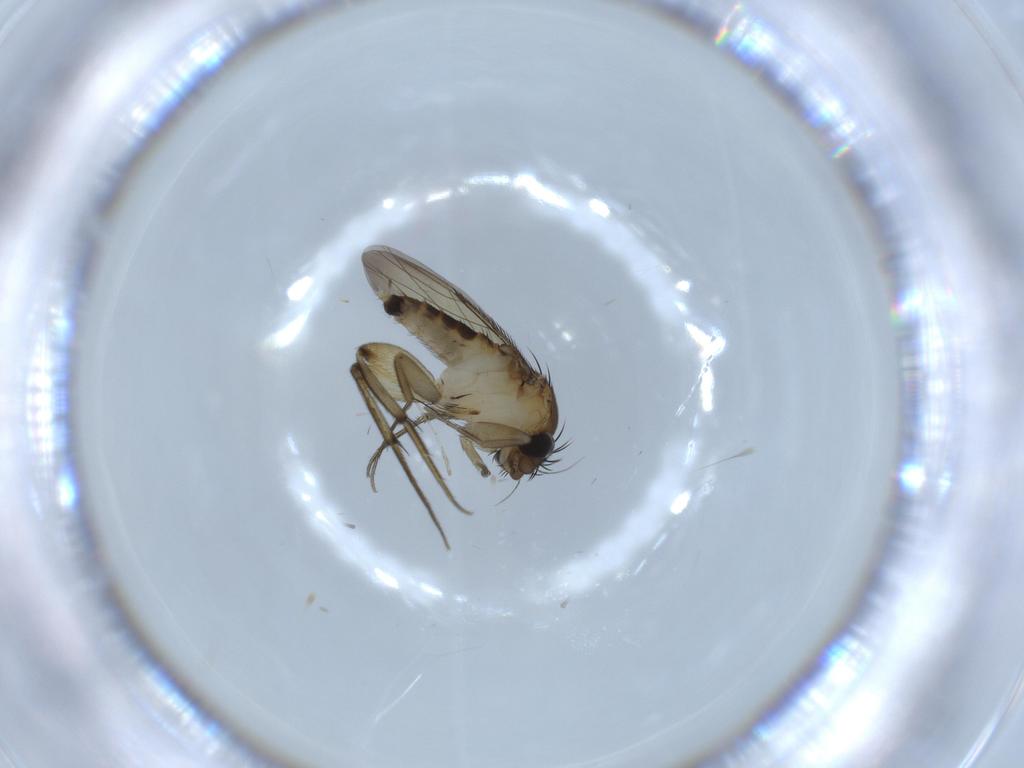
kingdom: Animalia
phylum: Arthropoda
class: Insecta
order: Diptera
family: Phoridae
